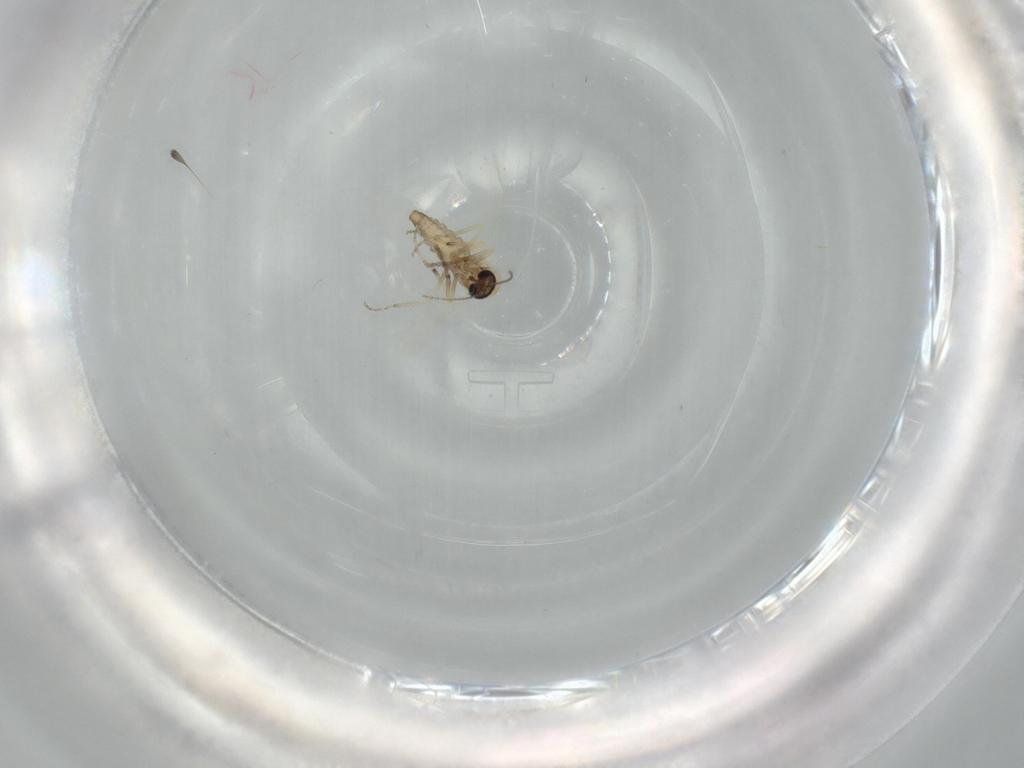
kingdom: Animalia
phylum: Arthropoda
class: Insecta
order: Diptera
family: Ceratopogonidae
